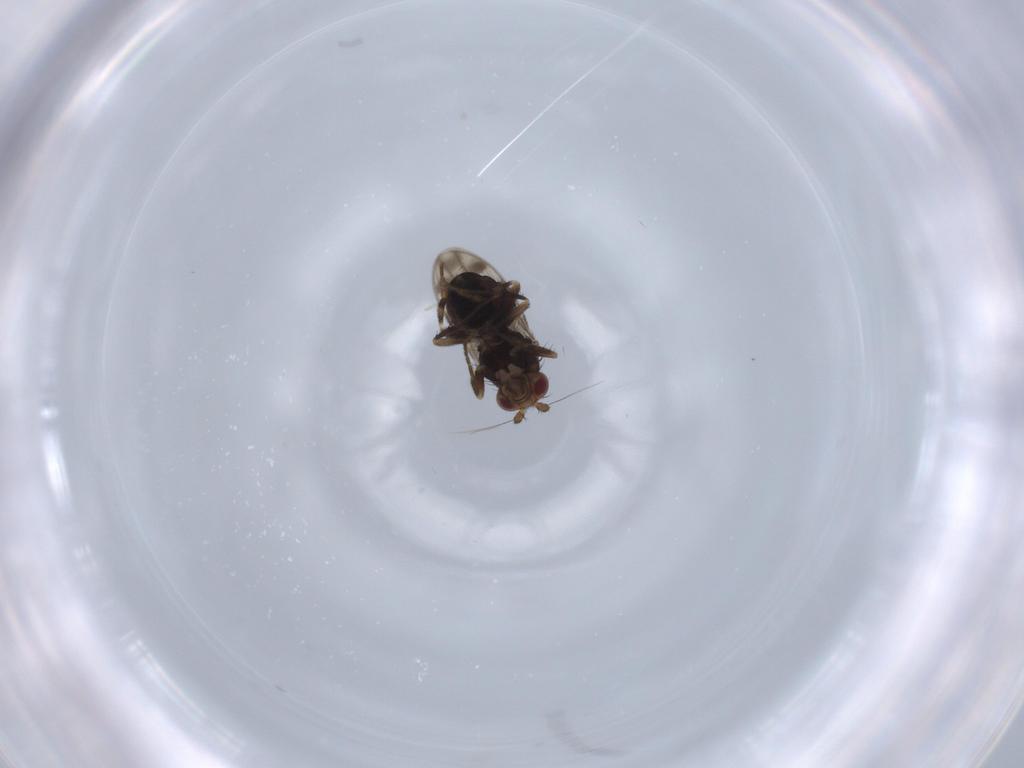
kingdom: Animalia
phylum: Arthropoda
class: Insecta
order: Diptera
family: Sphaeroceridae
